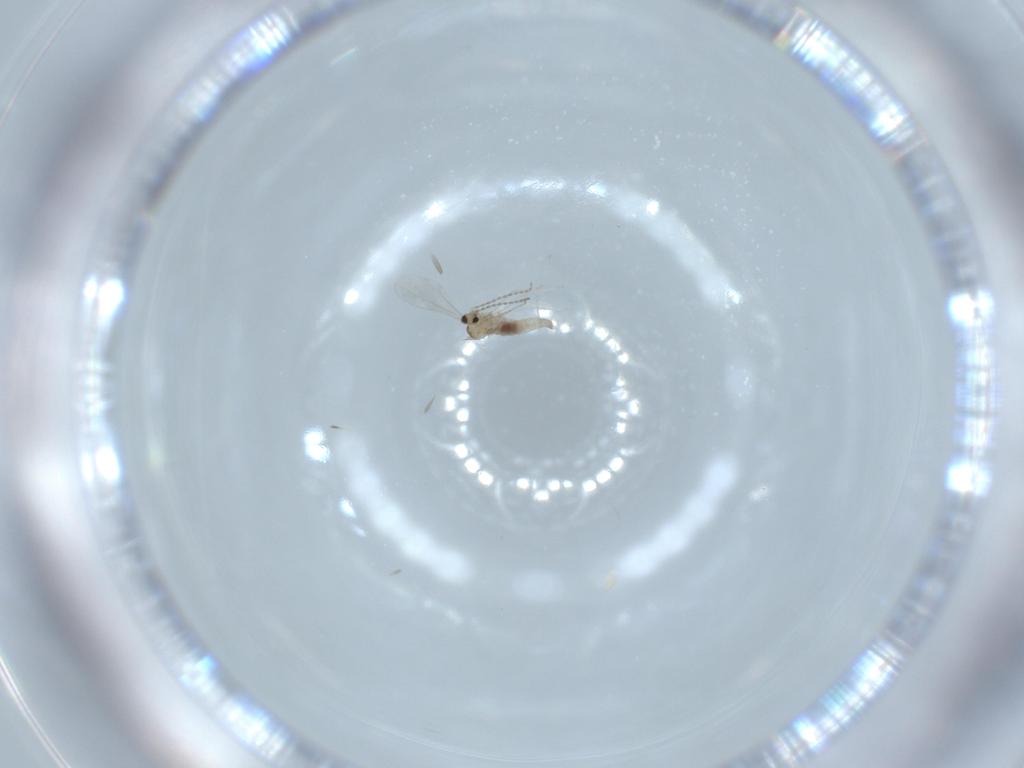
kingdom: Animalia
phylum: Arthropoda
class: Insecta
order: Diptera
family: Cecidomyiidae
